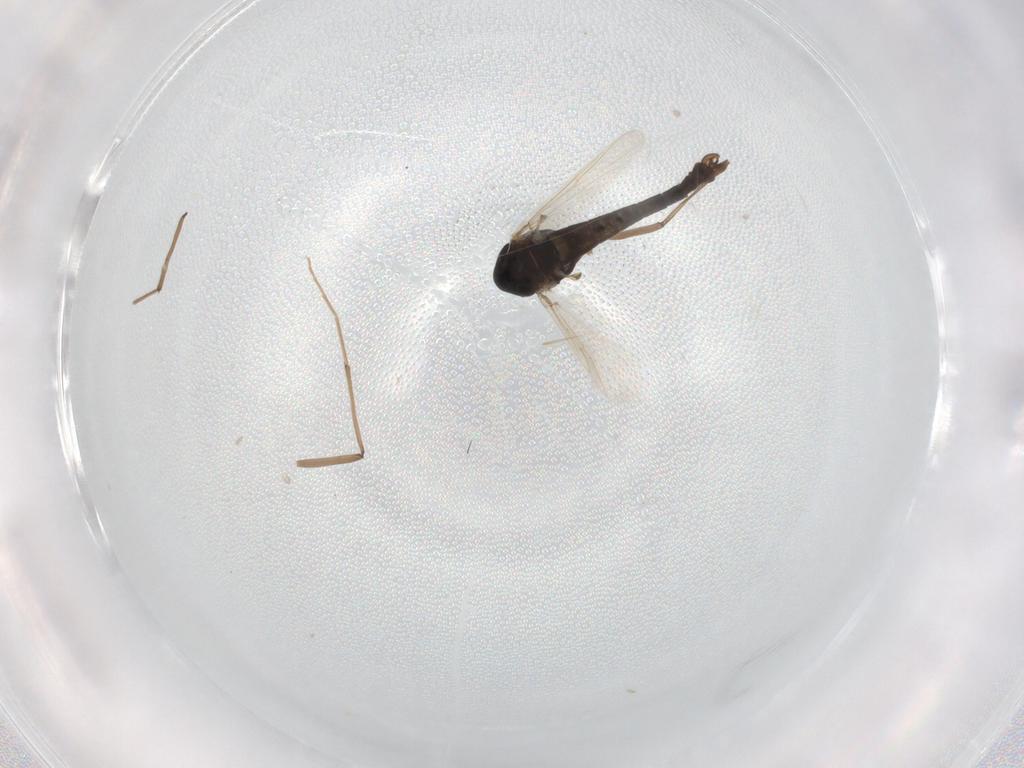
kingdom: Animalia
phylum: Arthropoda
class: Insecta
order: Diptera
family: Chironomidae
